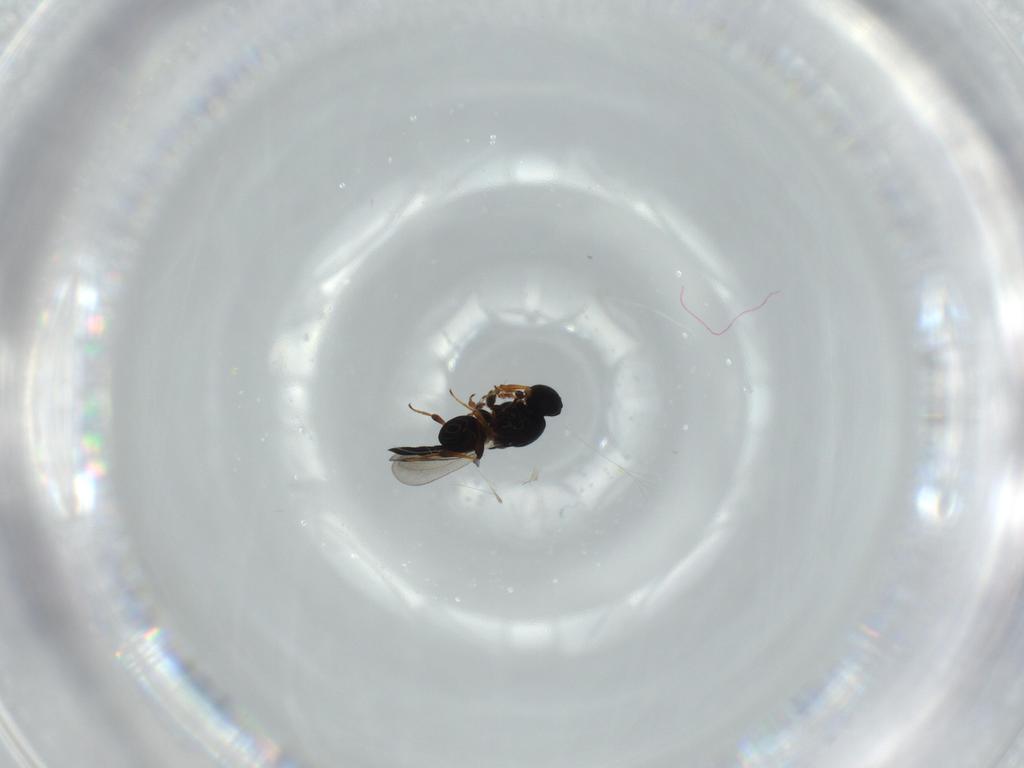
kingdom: Animalia
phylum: Arthropoda
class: Insecta
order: Hymenoptera
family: Platygastridae
